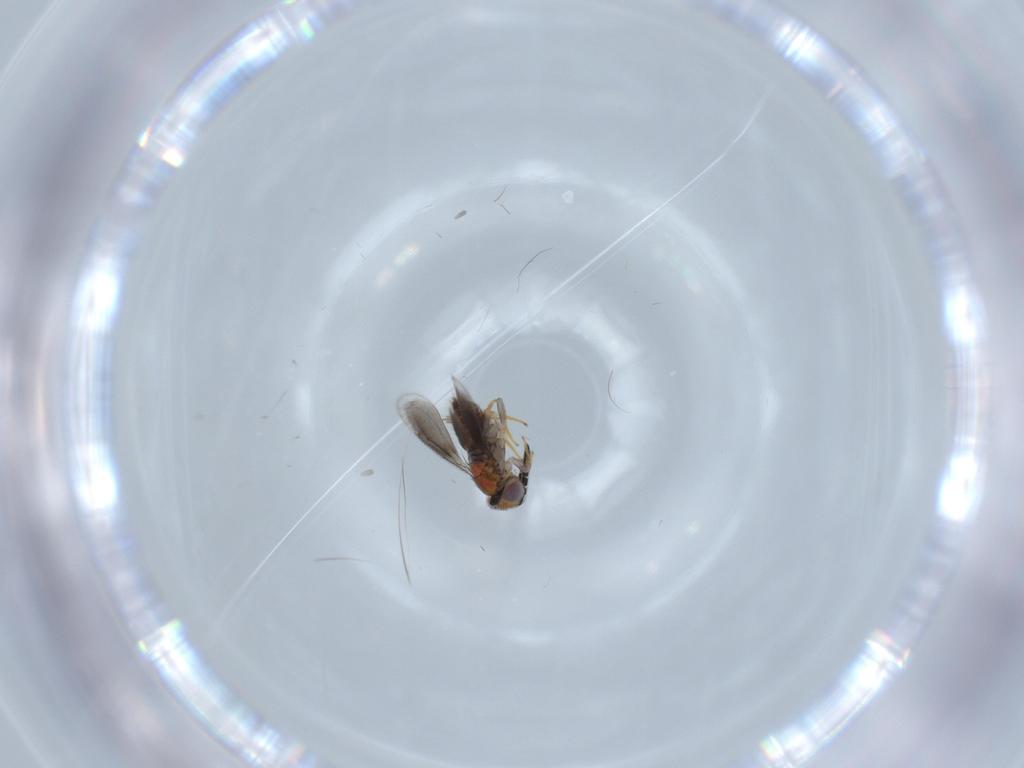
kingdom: Animalia
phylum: Arthropoda
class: Insecta
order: Hymenoptera
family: Aphelinidae
